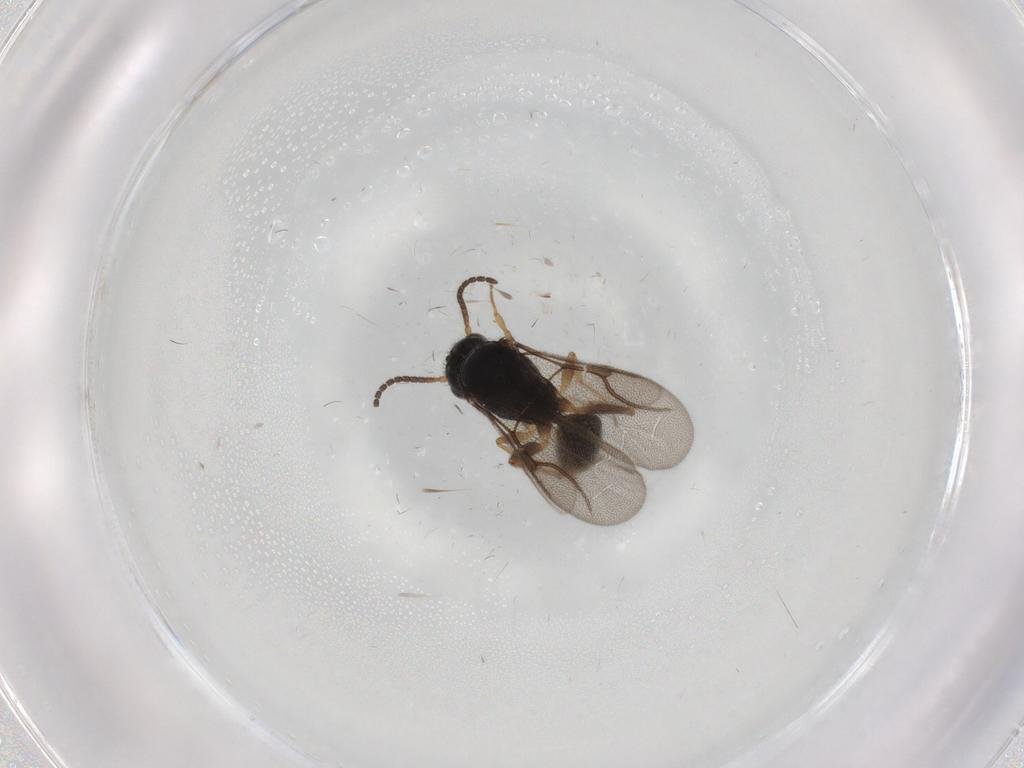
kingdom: Animalia
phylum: Arthropoda
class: Insecta
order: Hymenoptera
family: Bethylidae
